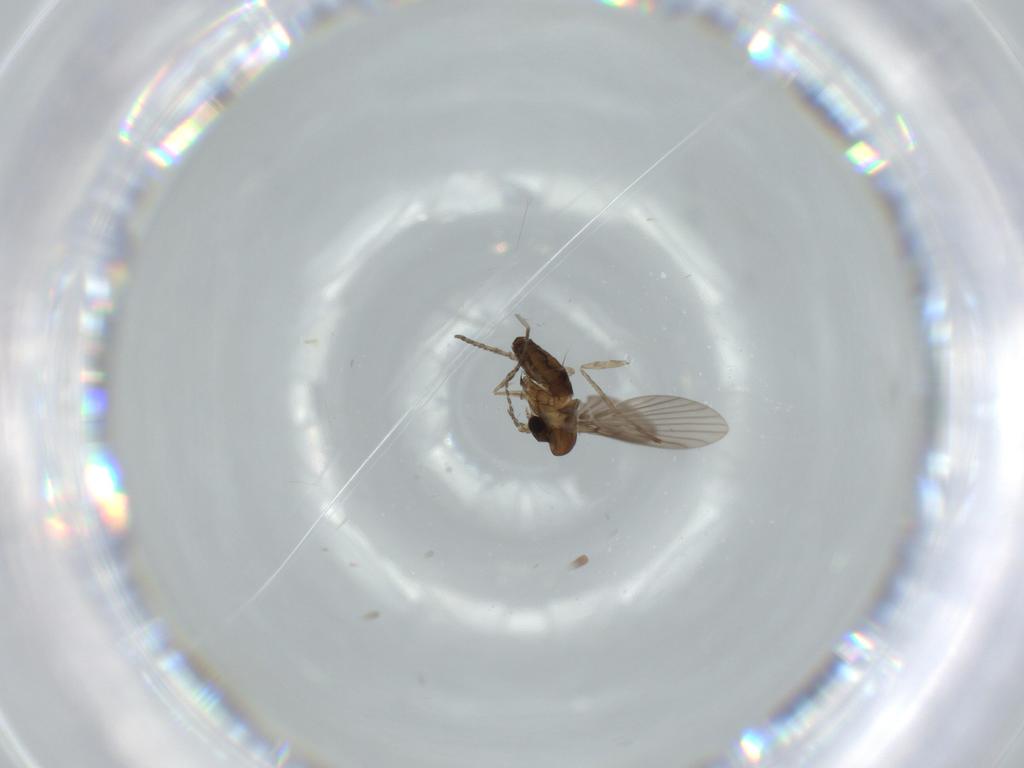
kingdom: Animalia
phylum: Arthropoda
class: Insecta
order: Diptera
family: Psychodidae
